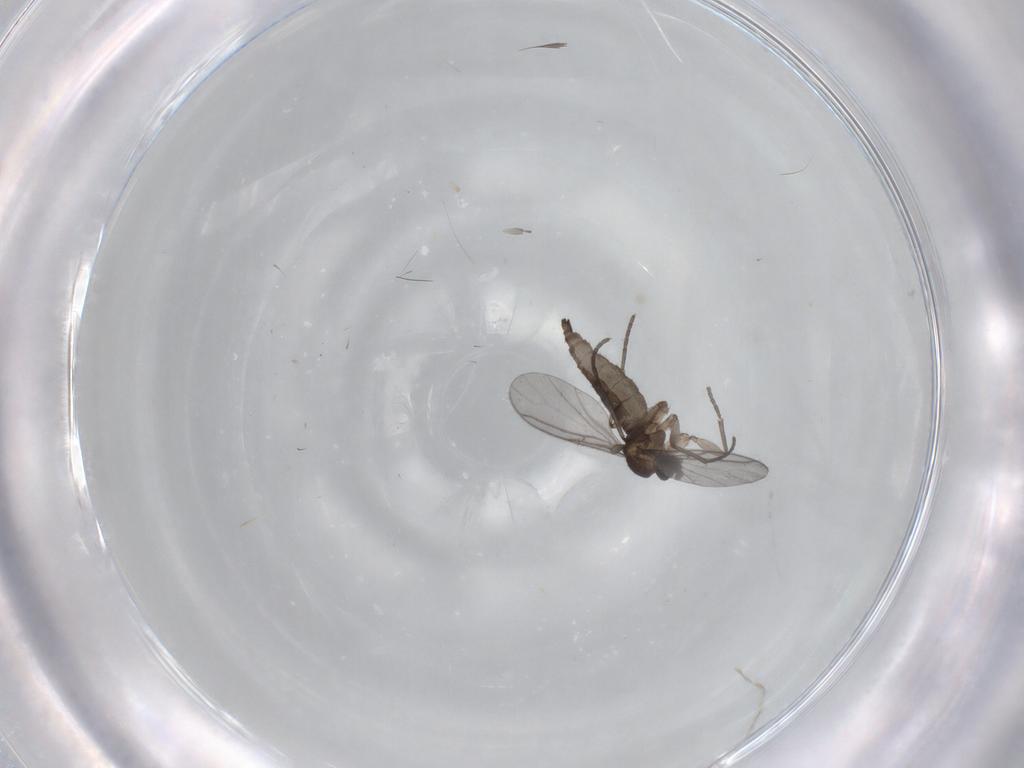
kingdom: Animalia
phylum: Arthropoda
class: Insecta
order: Diptera
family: Sciaridae
